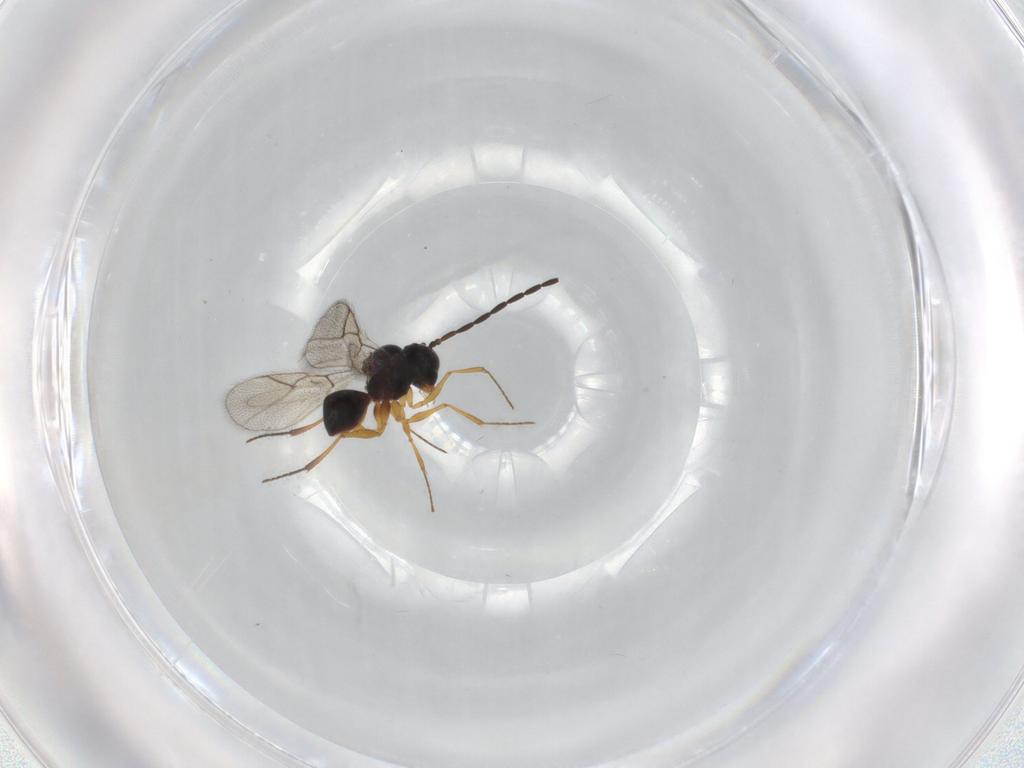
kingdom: Animalia
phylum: Arthropoda
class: Insecta
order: Hymenoptera
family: Figitidae
